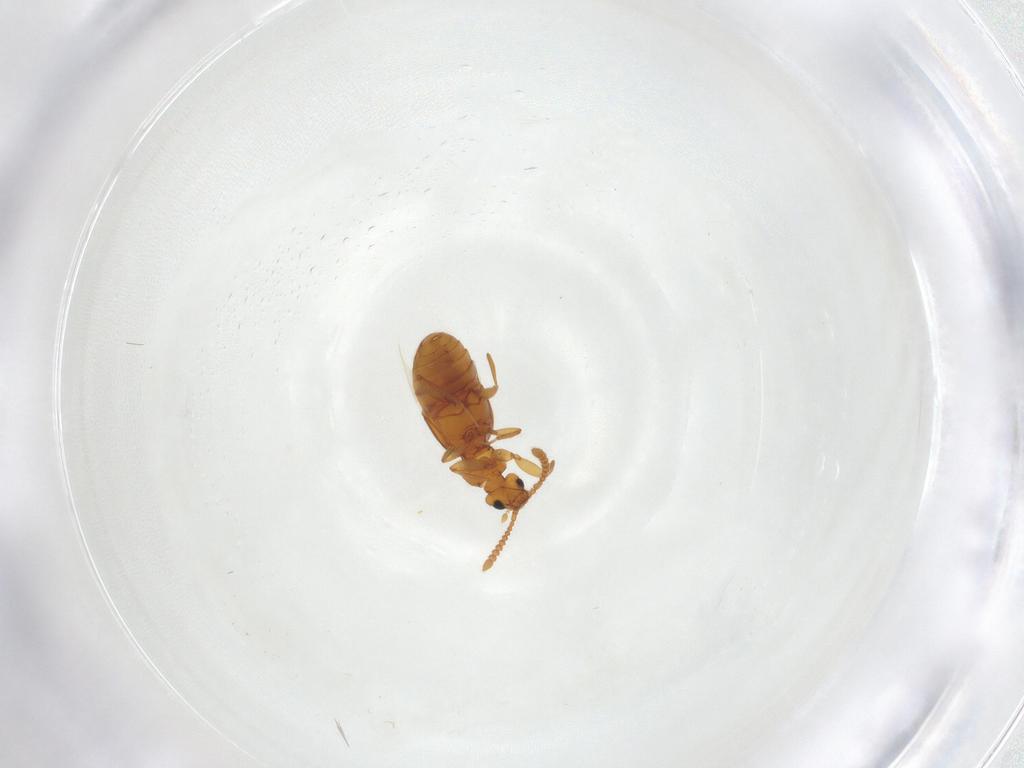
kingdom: Animalia
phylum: Arthropoda
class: Insecta
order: Coleoptera
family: Staphylinidae
